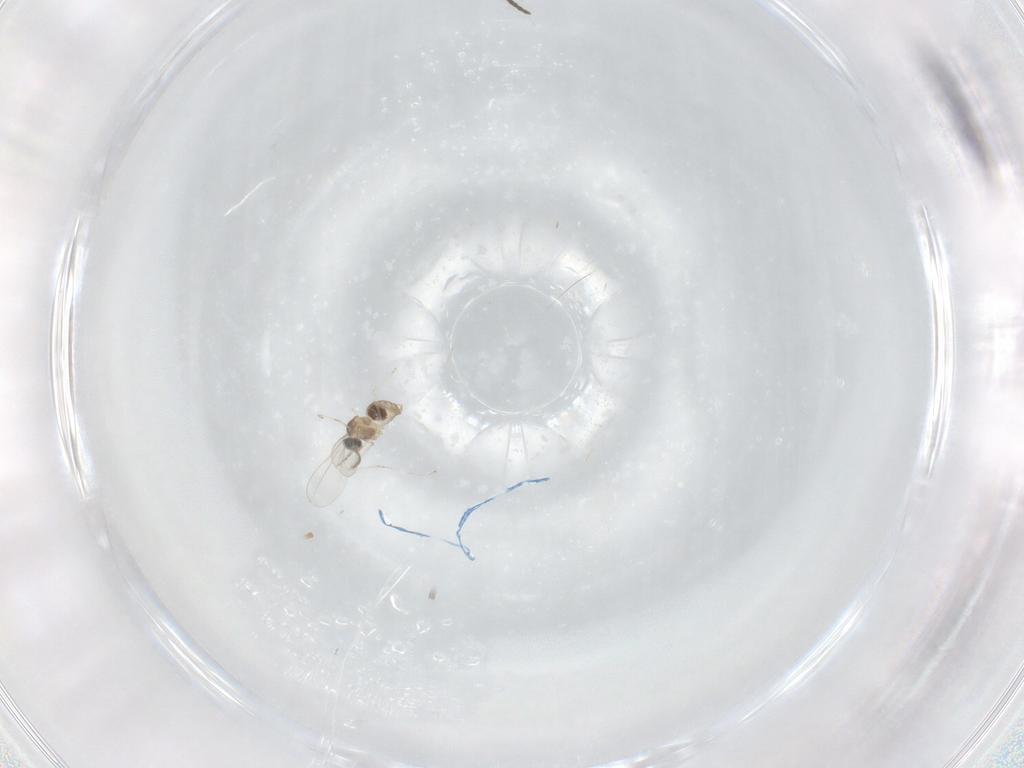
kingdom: Animalia
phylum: Arthropoda
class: Insecta
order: Diptera
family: Cecidomyiidae
